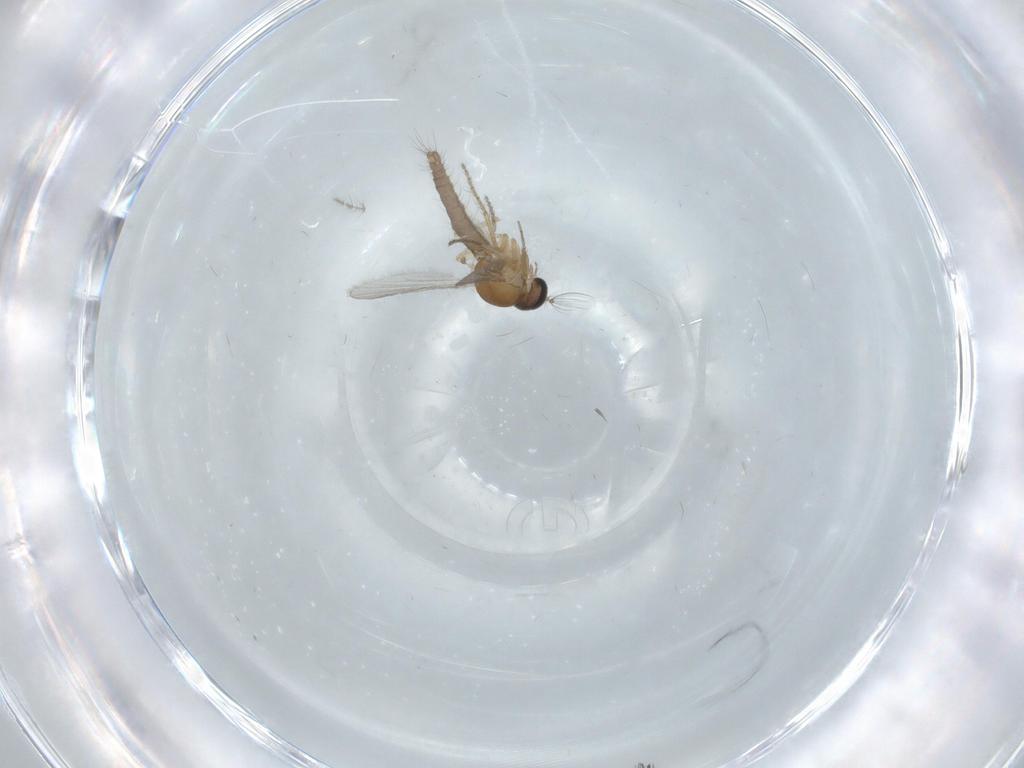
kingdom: Animalia
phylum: Arthropoda
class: Insecta
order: Diptera
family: Ceratopogonidae
